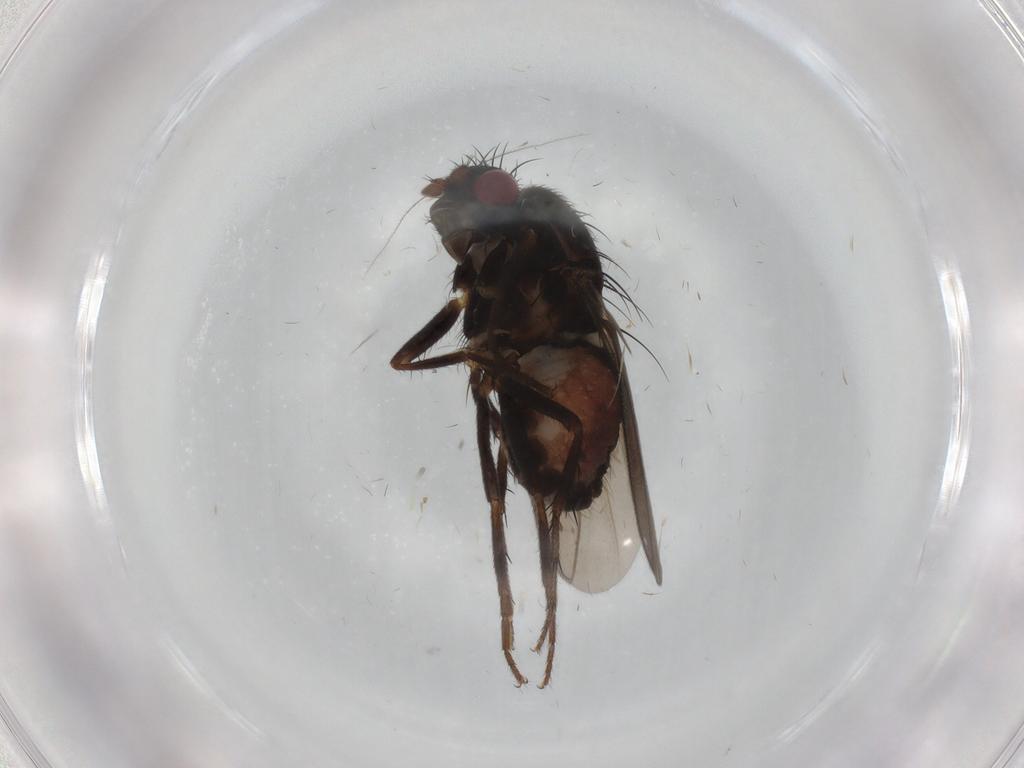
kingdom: Animalia
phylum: Arthropoda
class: Insecta
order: Diptera
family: Sphaeroceridae
